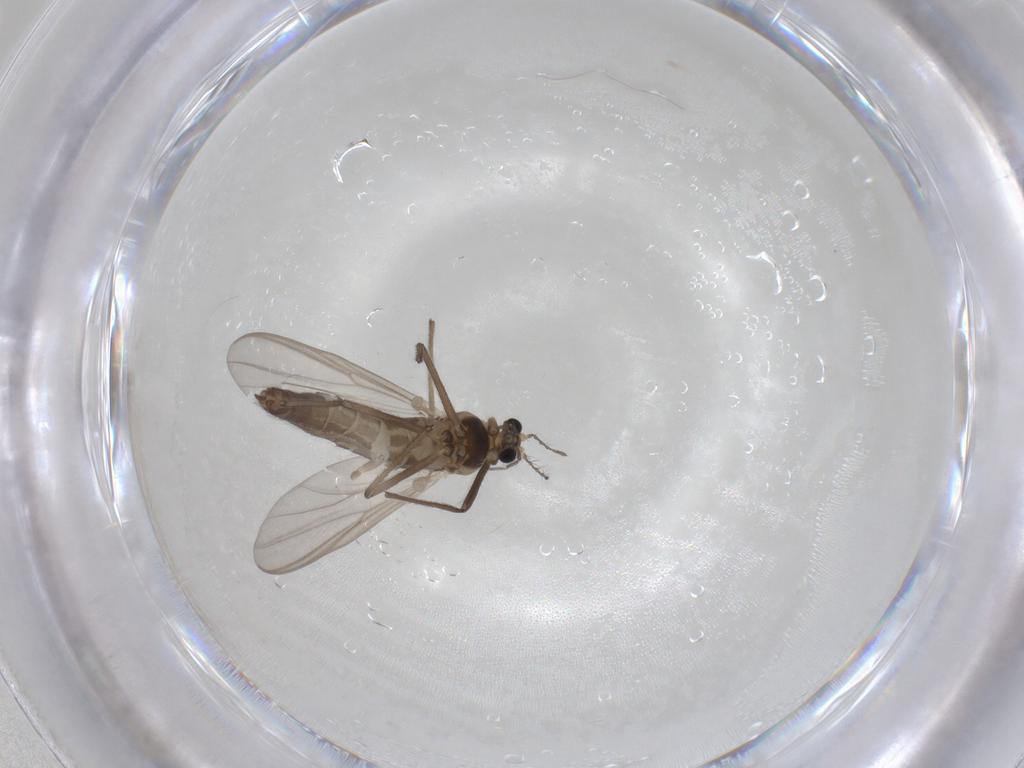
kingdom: Animalia
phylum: Arthropoda
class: Insecta
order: Diptera
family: Chironomidae
